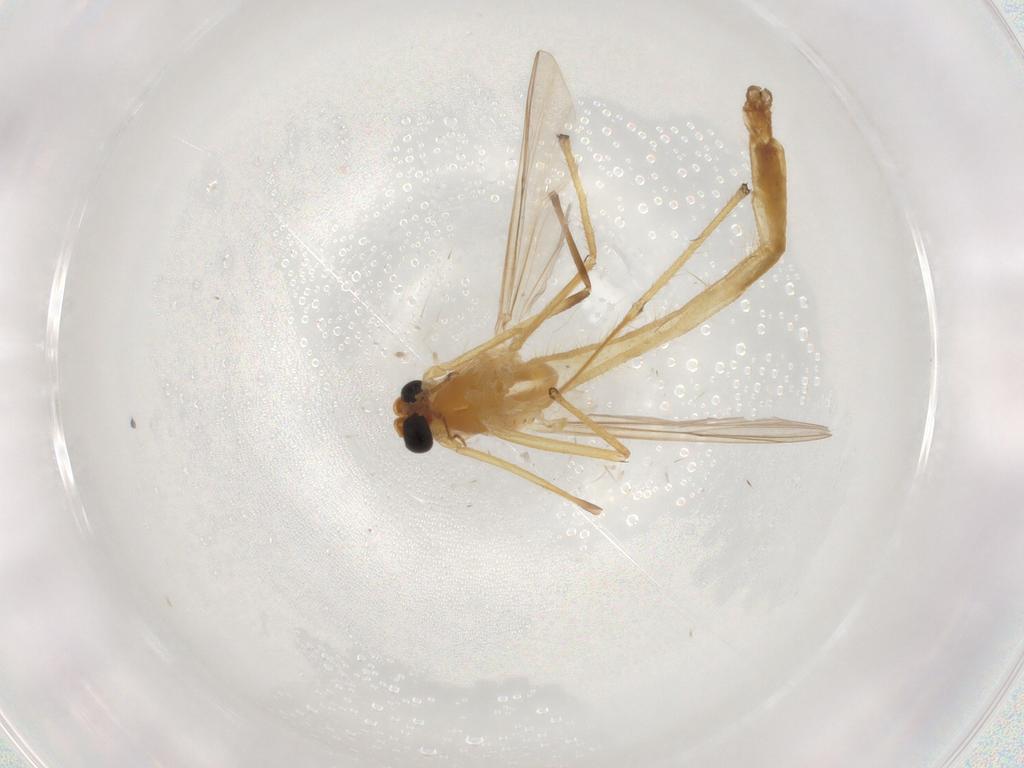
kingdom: Animalia
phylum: Arthropoda
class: Insecta
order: Diptera
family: Chironomidae
